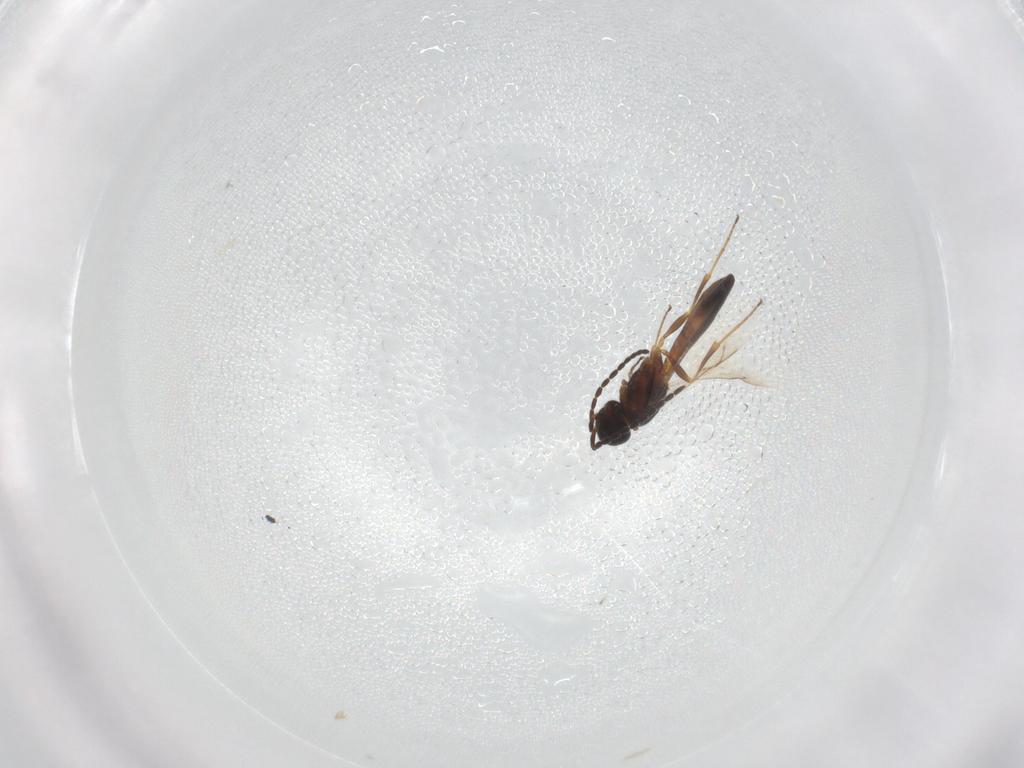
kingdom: Animalia
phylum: Arthropoda
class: Insecta
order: Hymenoptera
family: Scelionidae
